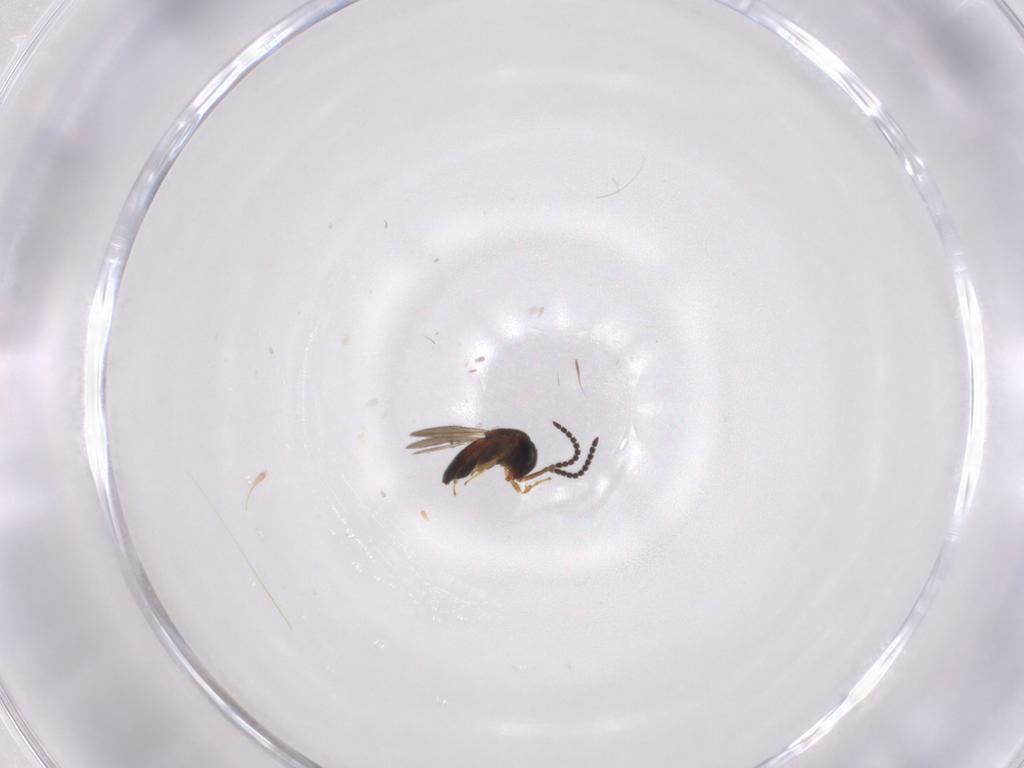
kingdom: Animalia
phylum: Arthropoda
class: Insecta
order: Hymenoptera
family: Scelionidae
